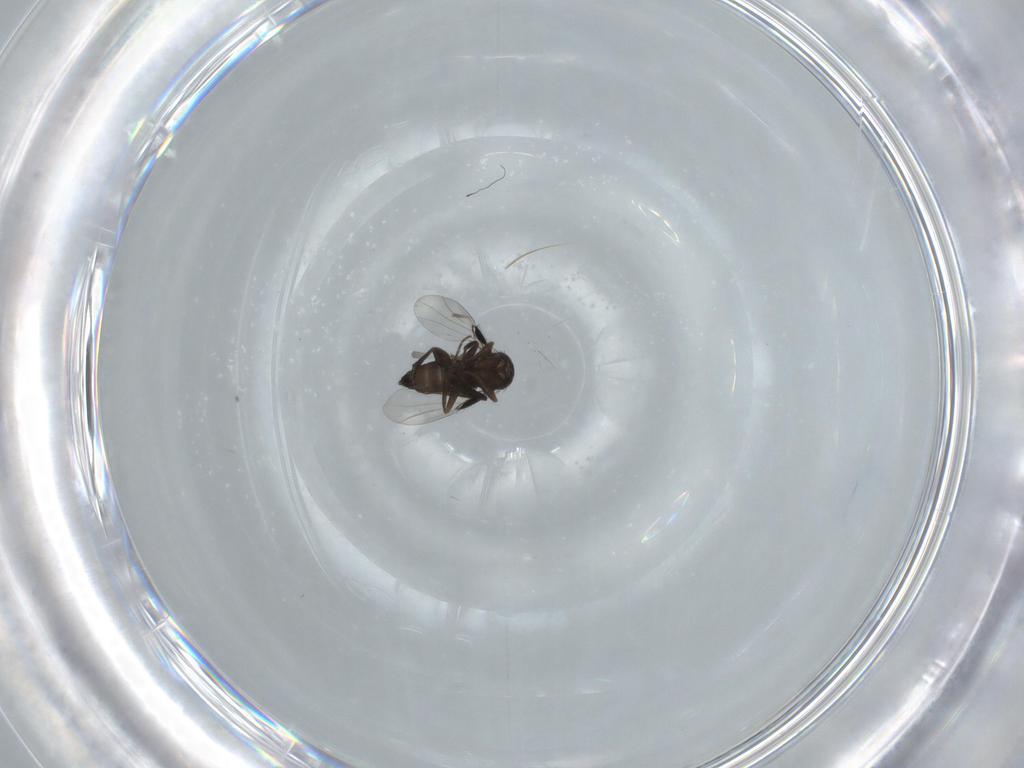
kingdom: Animalia
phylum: Arthropoda
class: Insecta
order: Diptera
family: Phoridae
